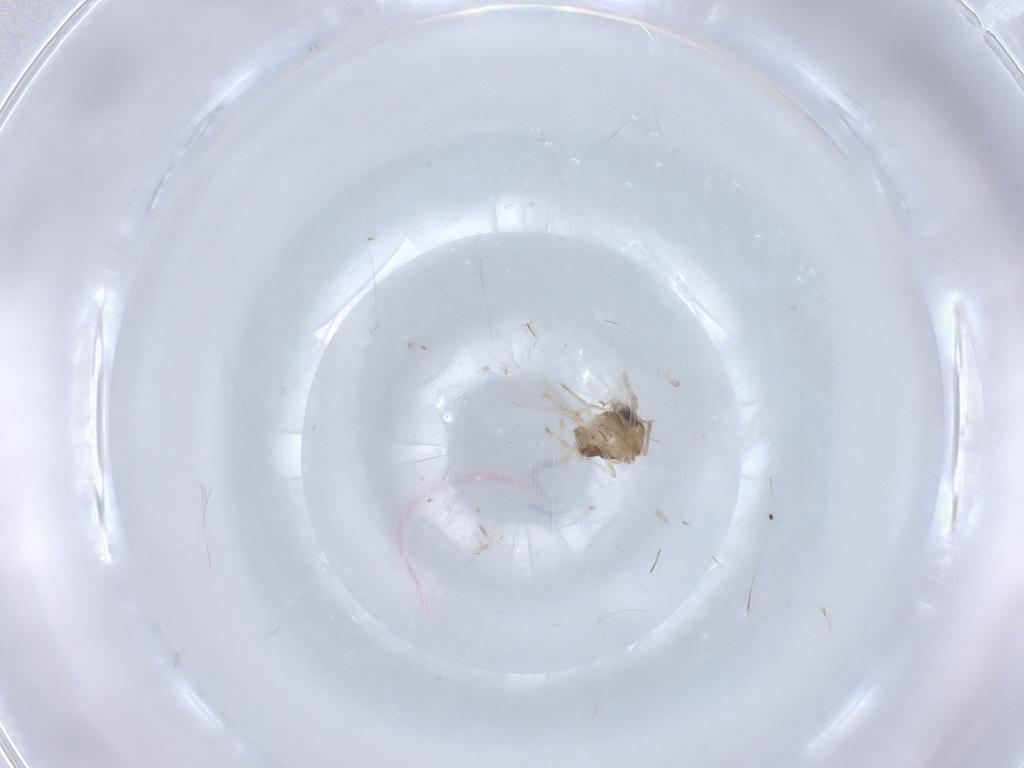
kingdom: Animalia
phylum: Arthropoda
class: Insecta
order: Diptera
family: Chironomidae
